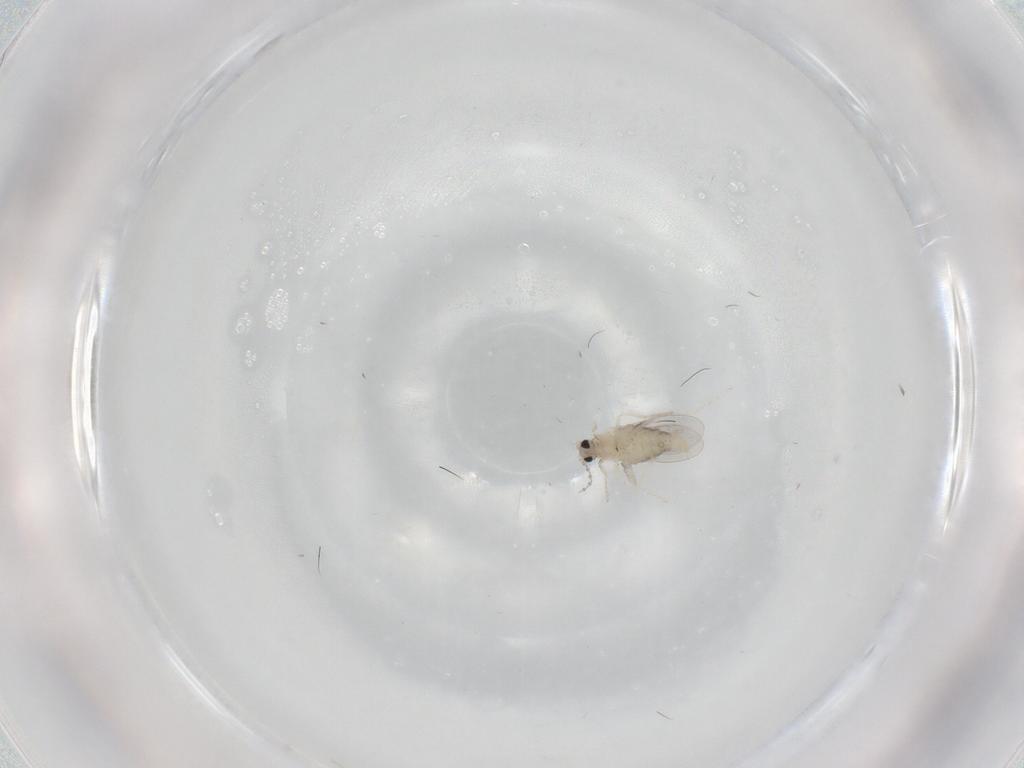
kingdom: Animalia
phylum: Arthropoda
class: Insecta
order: Diptera
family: Cecidomyiidae
